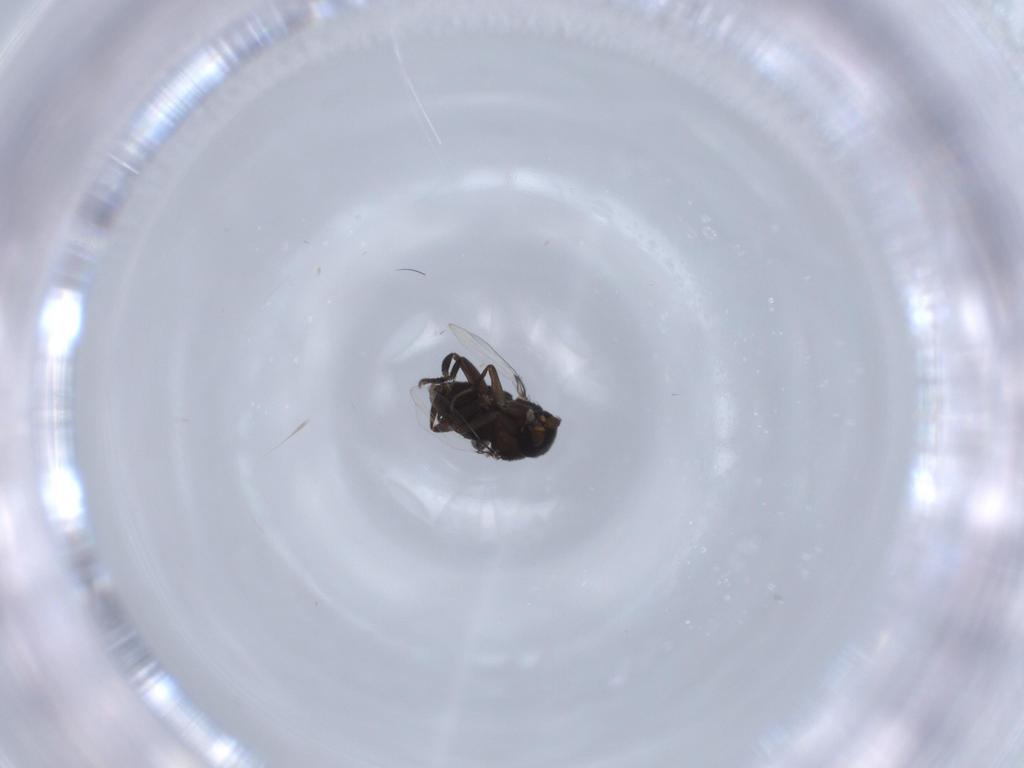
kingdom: Animalia
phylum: Arthropoda
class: Insecta
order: Diptera
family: Phoridae
